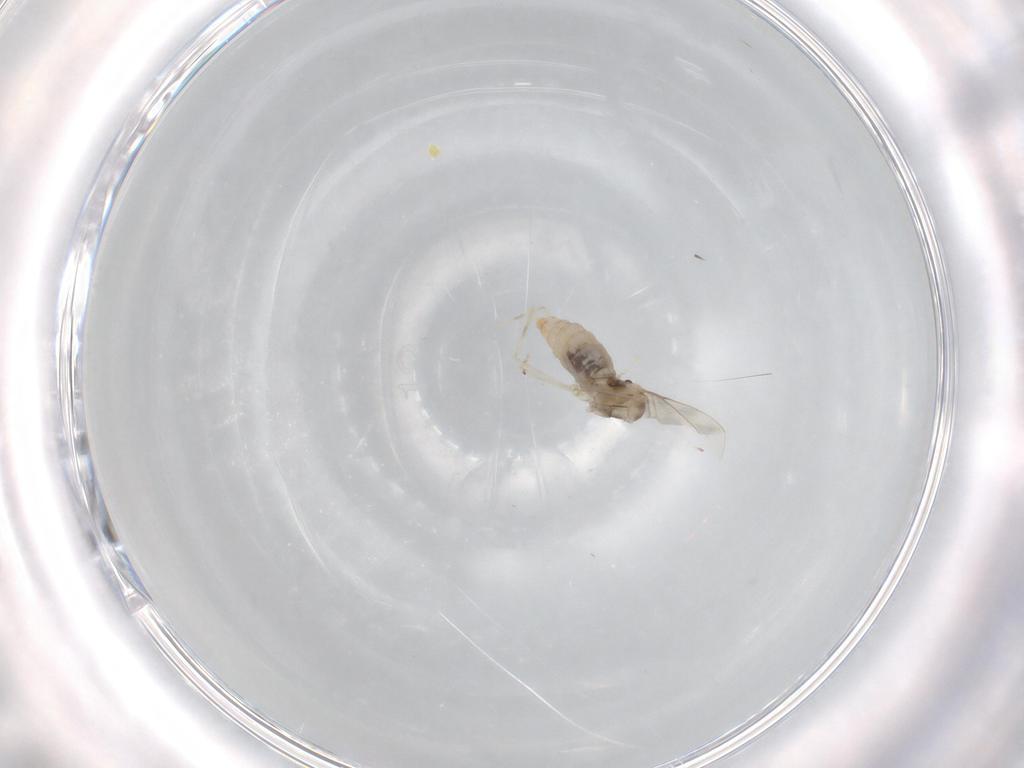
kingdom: Animalia
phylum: Arthropoda
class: Insecta
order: Diptera
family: Cecidomyiidae
